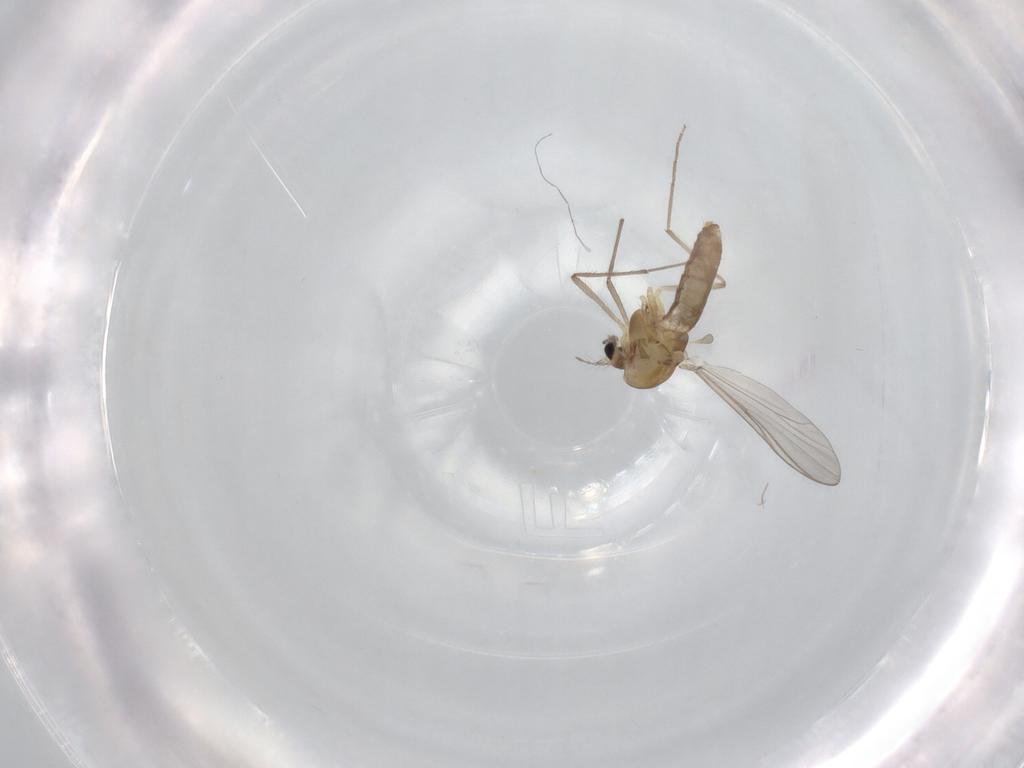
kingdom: Animalia
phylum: Arthropoda
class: Insecta
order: Diptera
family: Chironomidae
